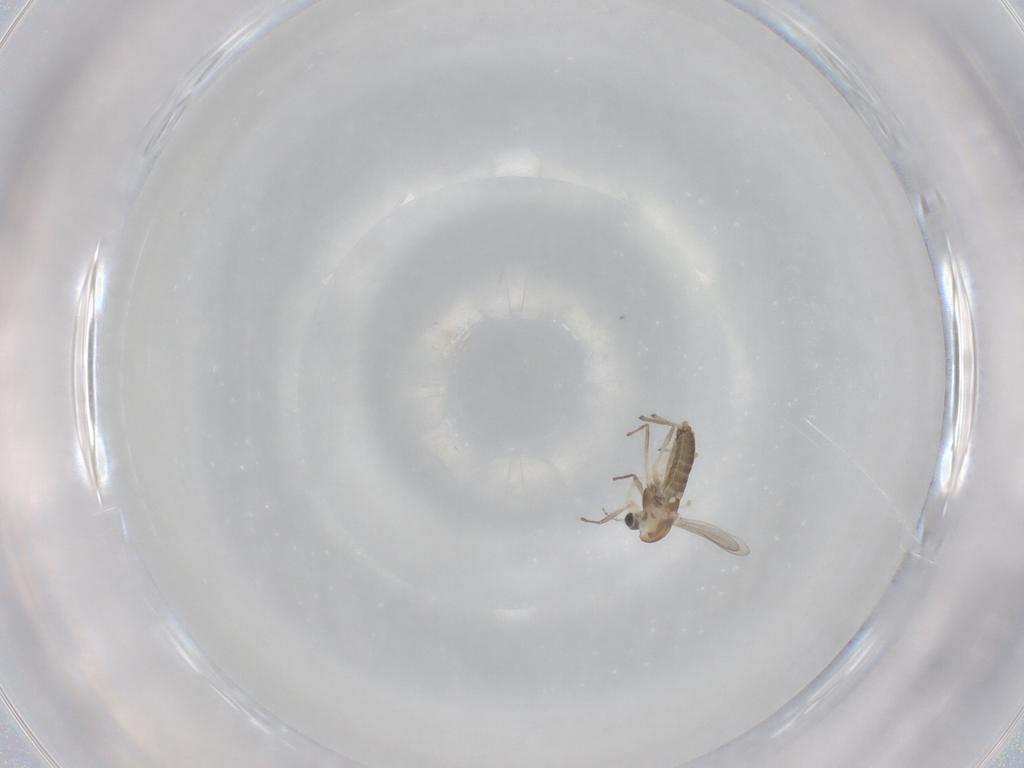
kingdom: Animalia
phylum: Arthropoda
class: Insecta
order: Diptera
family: Chironomidae
